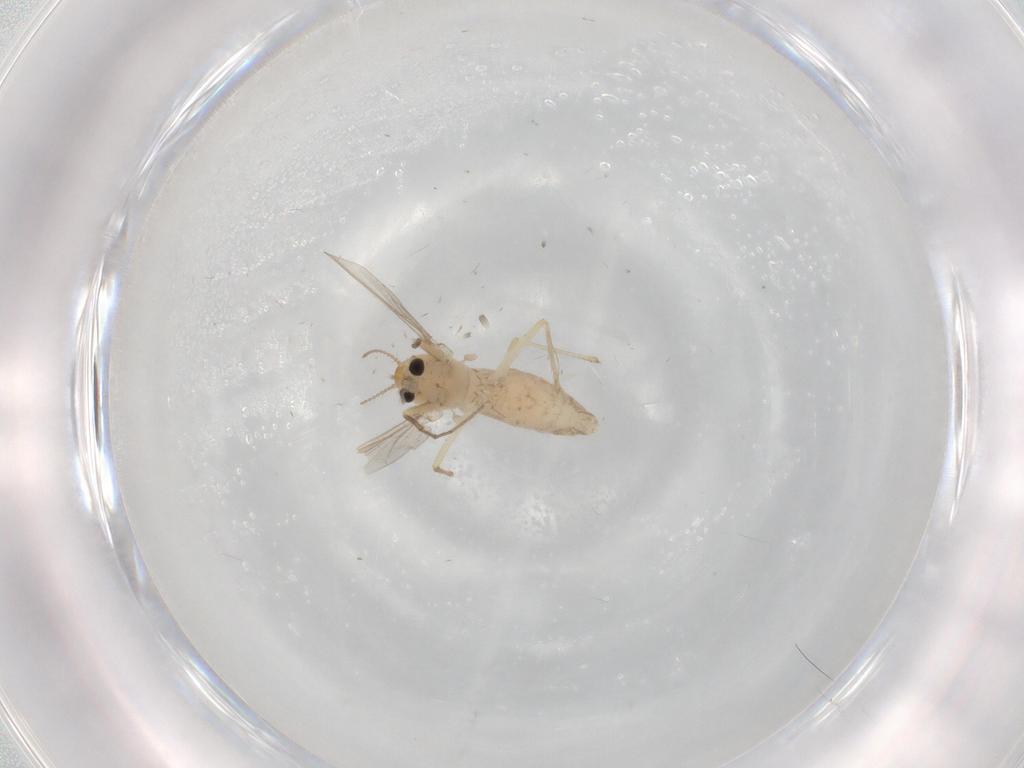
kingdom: Animalia
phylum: Arthropoda
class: Insecta
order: Diptera
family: Chironomidae
